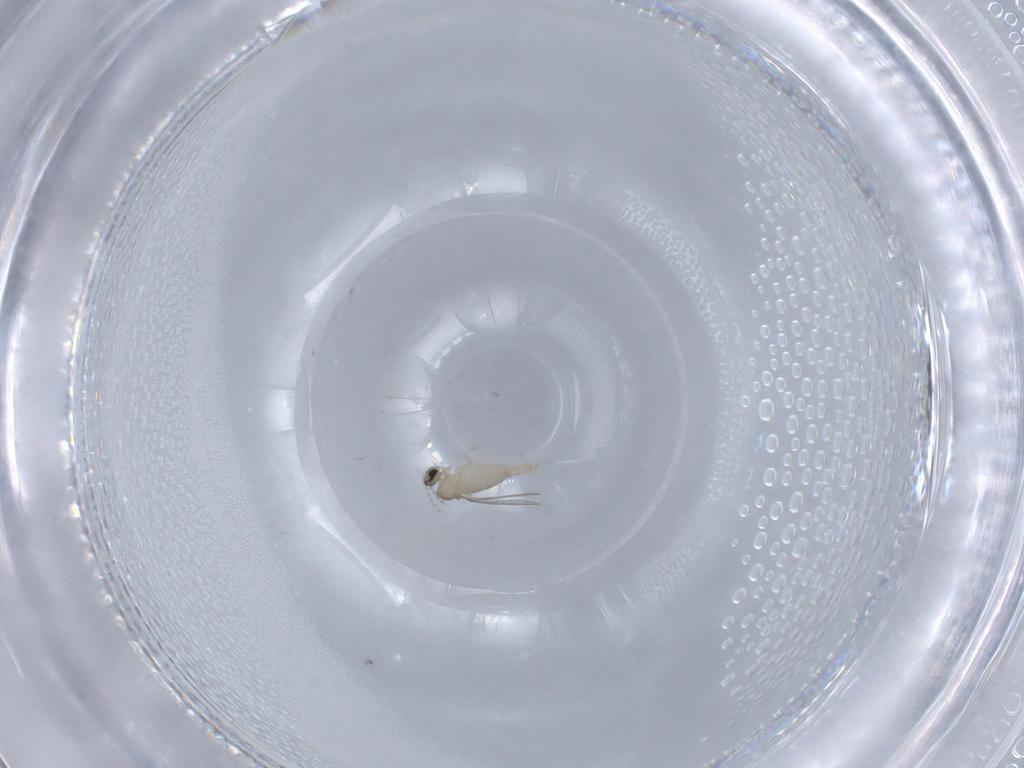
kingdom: Animalia
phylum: Arthropoda
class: Insecta
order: Diptera
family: Cecidomyiidae
